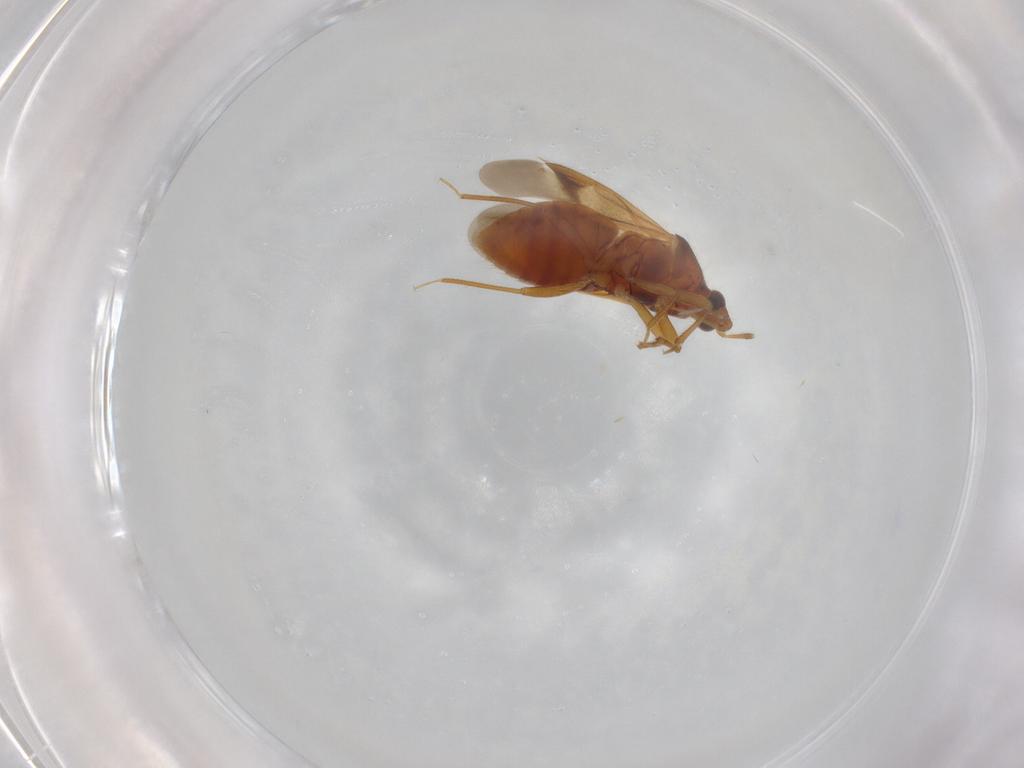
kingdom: Animalia
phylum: Arthropoda
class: Insecta
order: Hemiptera
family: Anthocoridae
